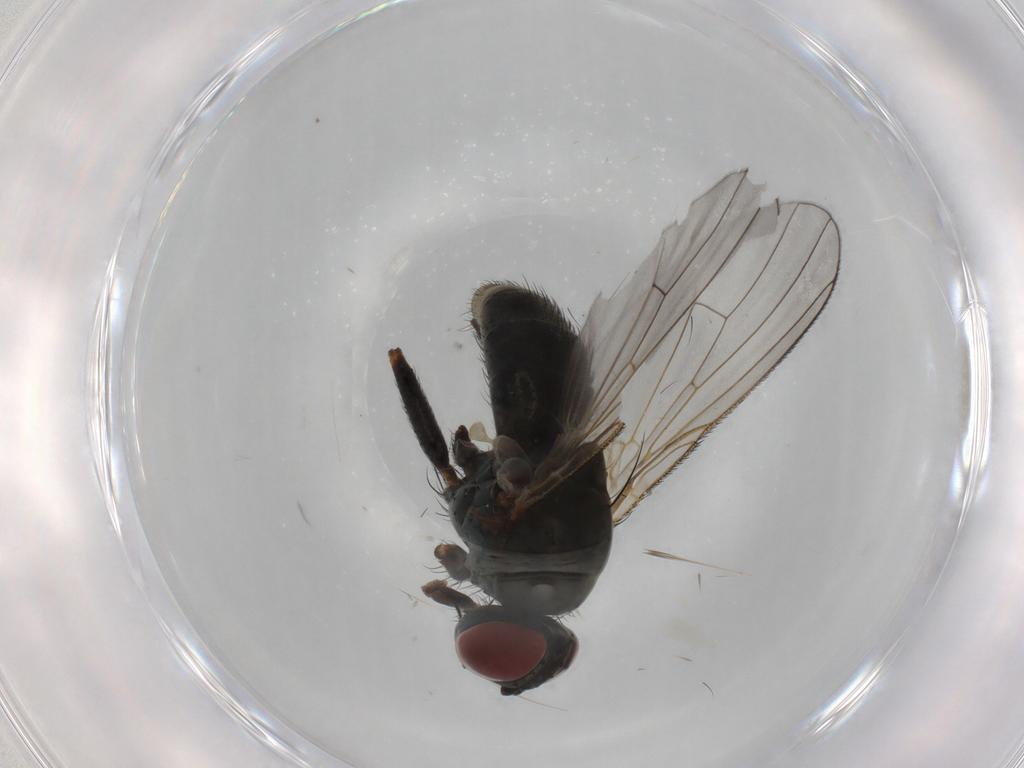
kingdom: Animalia
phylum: Arthropoda
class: Insecta
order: Diptera
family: Muscidae
